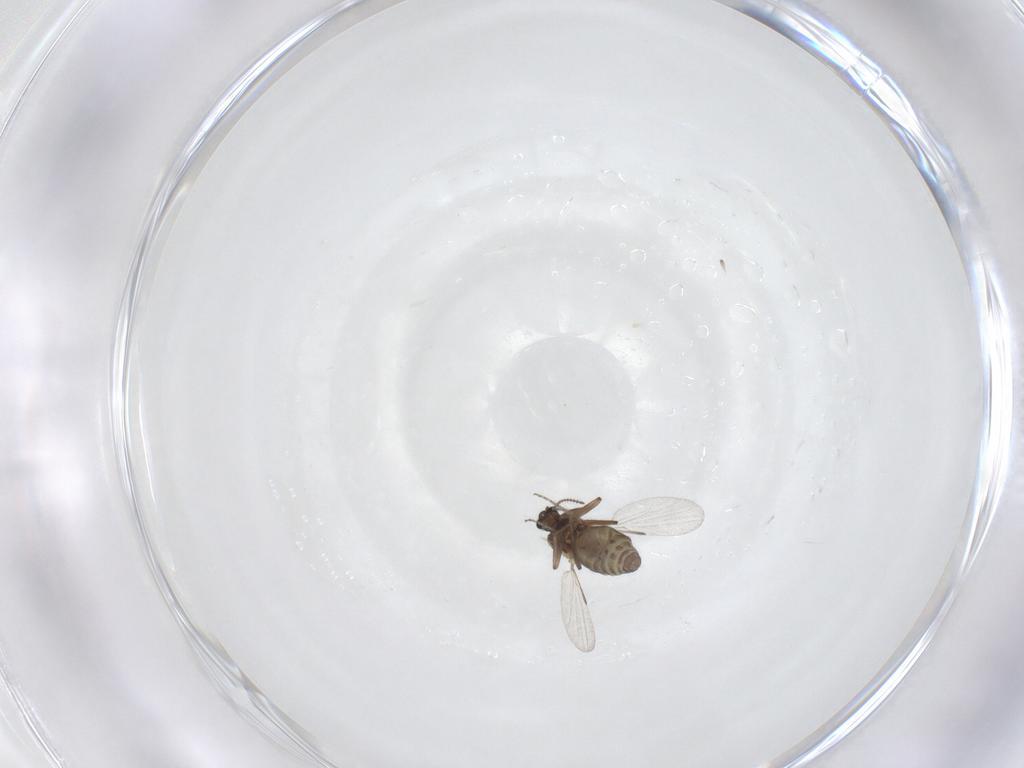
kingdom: Animalia
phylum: Arthropoda
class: Insecta
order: Diptera
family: Ceratopogonidae
